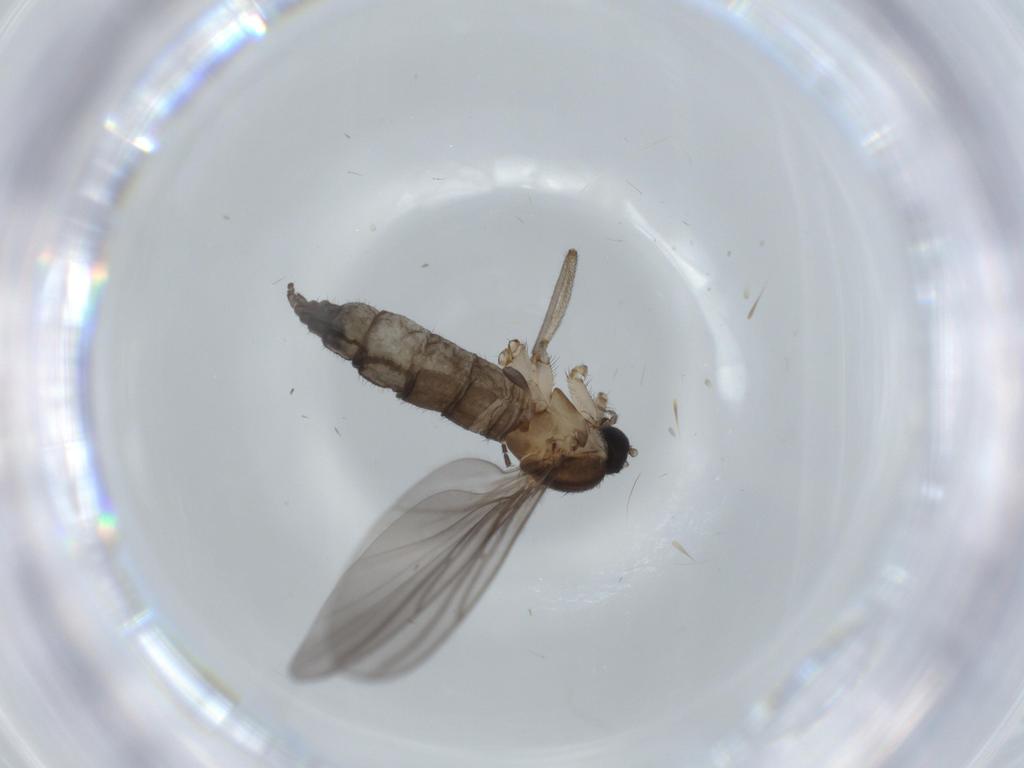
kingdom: Animalia
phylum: Arthropoda
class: Insecta
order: Diptera
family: Sciaridae
